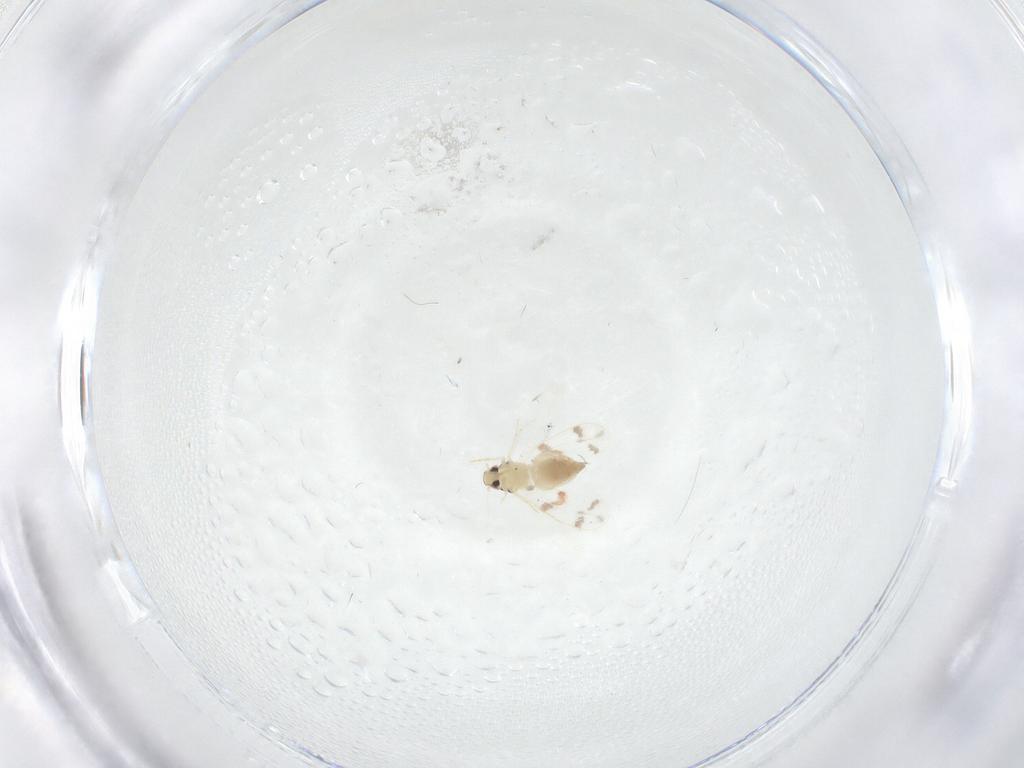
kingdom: Animalia
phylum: Arthropoda
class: Insecta
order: Hemiptera
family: Aleyrodidae
